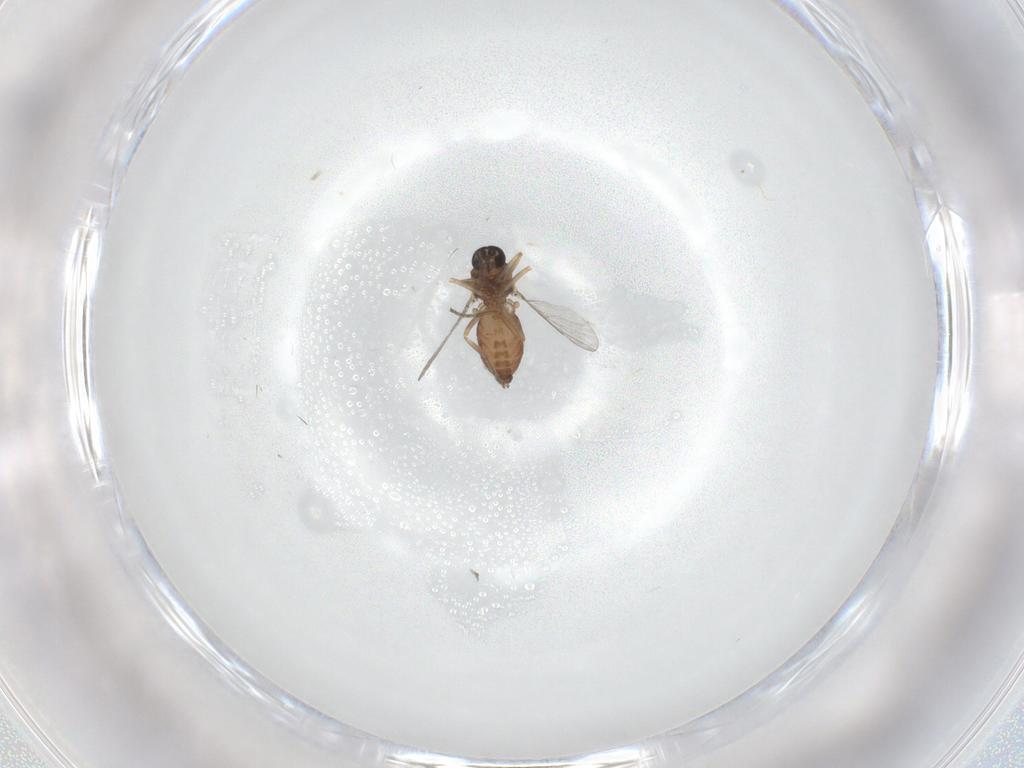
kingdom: Animalia
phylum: Arthropoda
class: Insecta
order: Diptera
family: Ceratopogonidae
